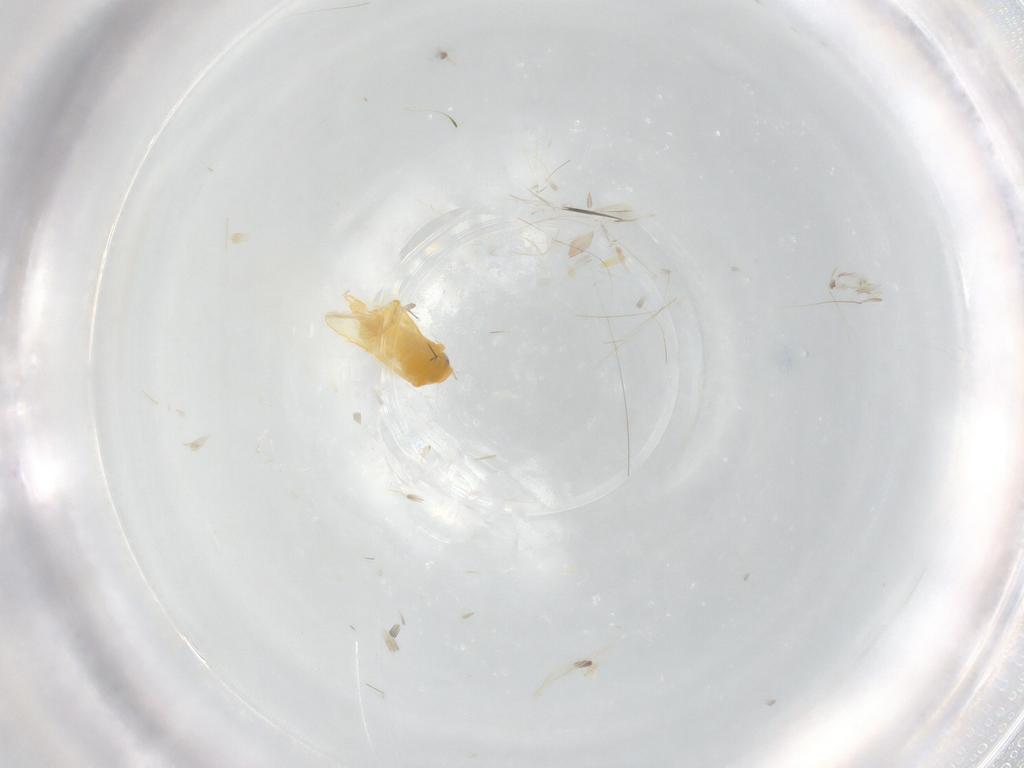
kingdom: Animalia
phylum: Arthropoda
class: Insecta
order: Hemiptera
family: Aleyrodidae
